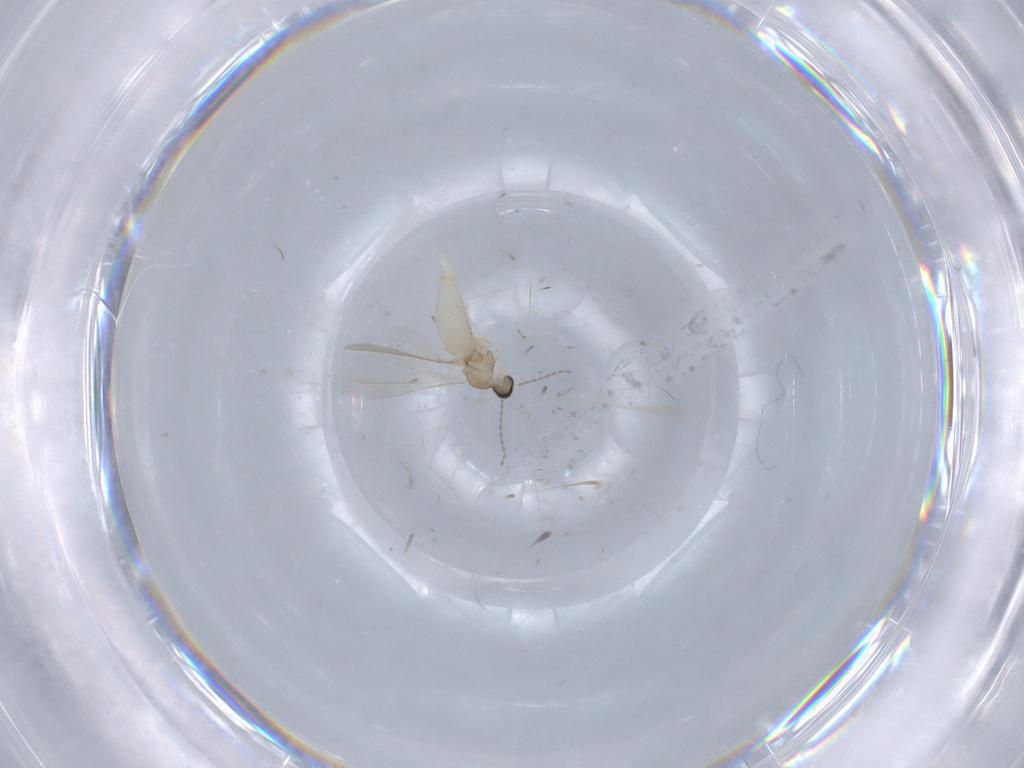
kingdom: Animalia
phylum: Arthropoda
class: Insecta
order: Diptera
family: Cecidomyiidae
